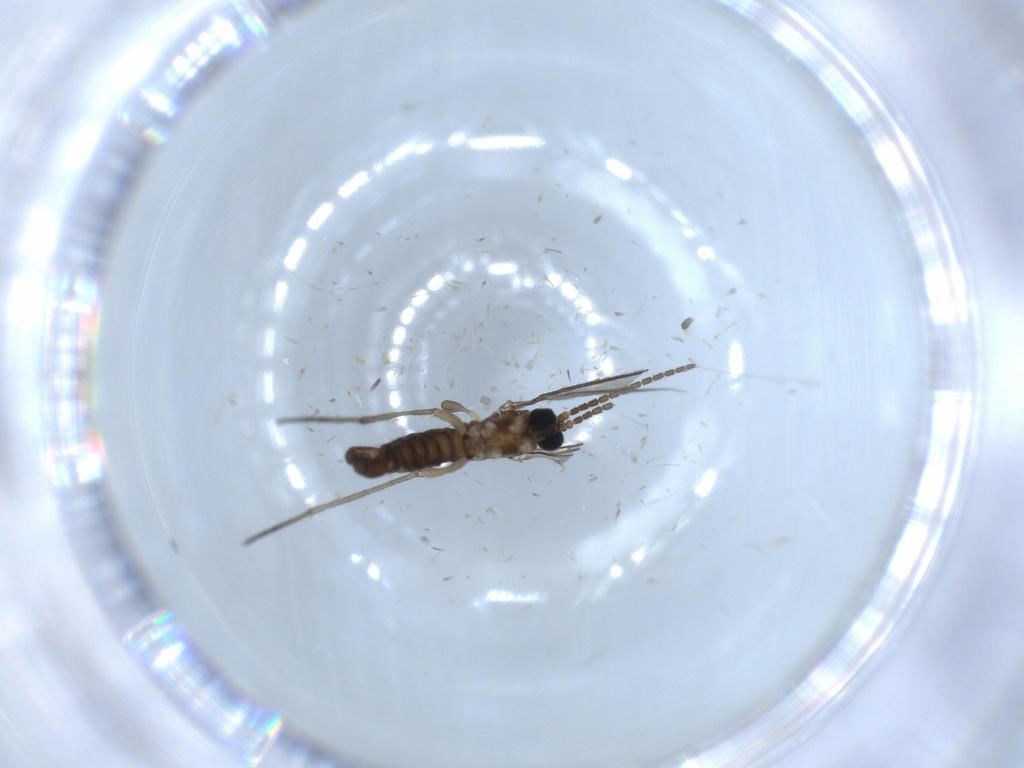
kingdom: Animalia
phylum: Arthropoda
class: Insecta
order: Diptera
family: Sciaridae
